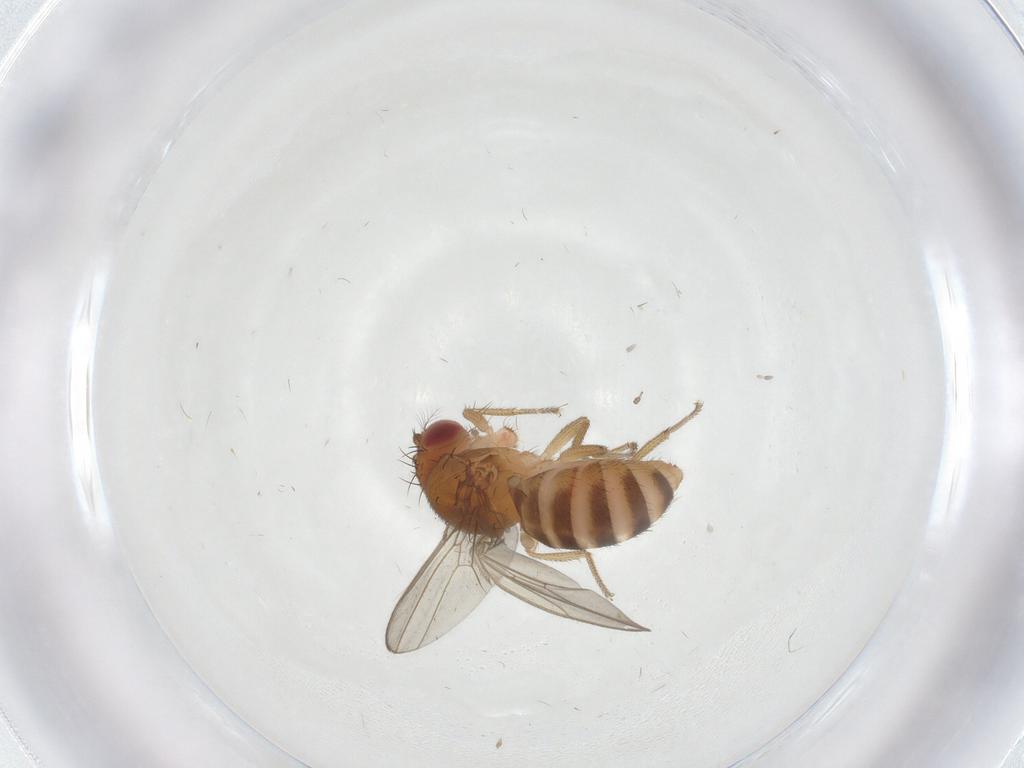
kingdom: Animalia
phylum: Arthropoda
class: Insecta
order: Diptera
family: Drosophilidae
